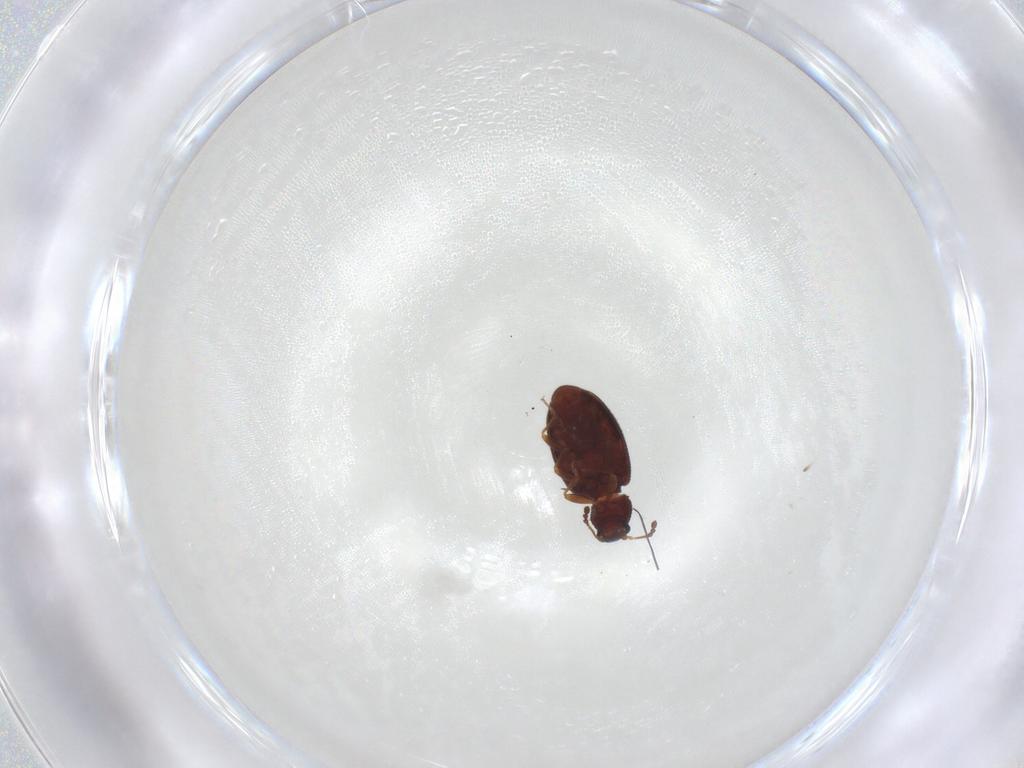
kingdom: Animalia
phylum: Arthropoda
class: Insecta
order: Coleoptera
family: Latridiidae
